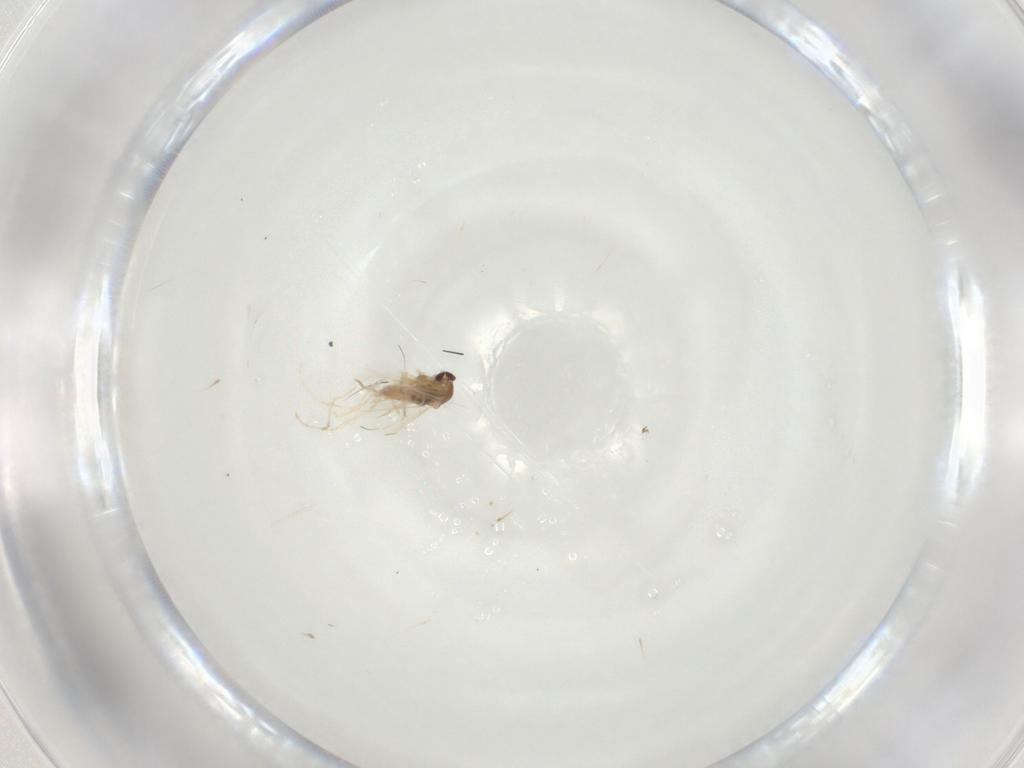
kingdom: Animalia
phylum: Arthropoda
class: Insecta
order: Diptera
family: Cecidomyiidae
